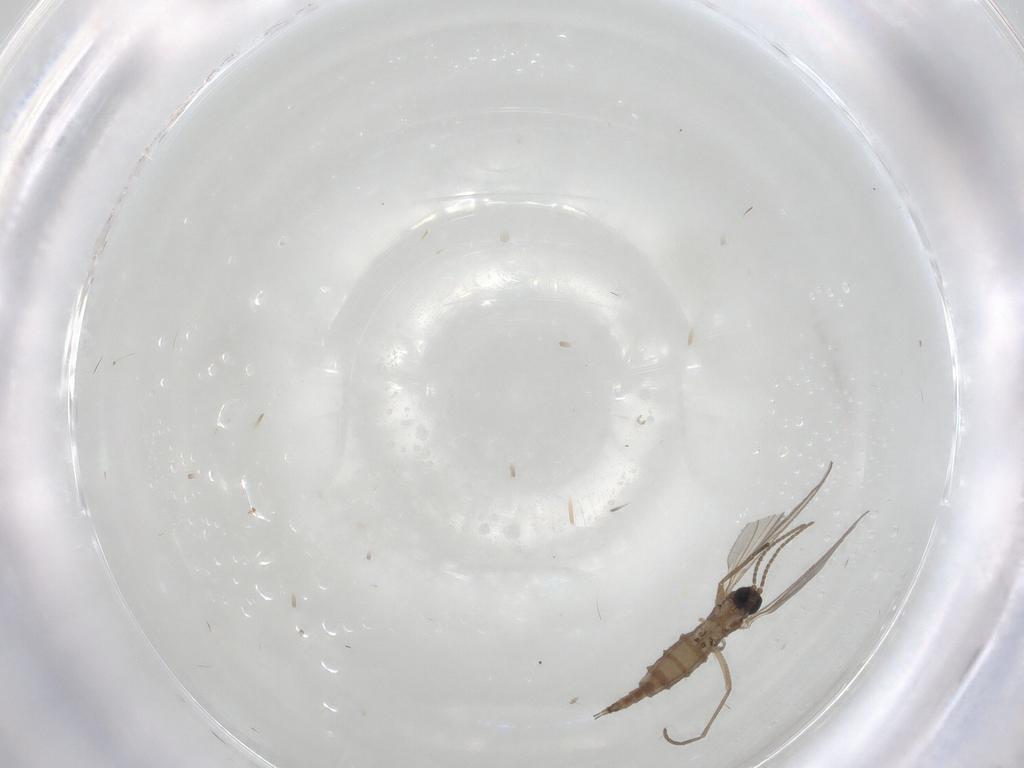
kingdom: Animalia
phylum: Arthropoda
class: Insecta
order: Diptera
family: Sciaridae
